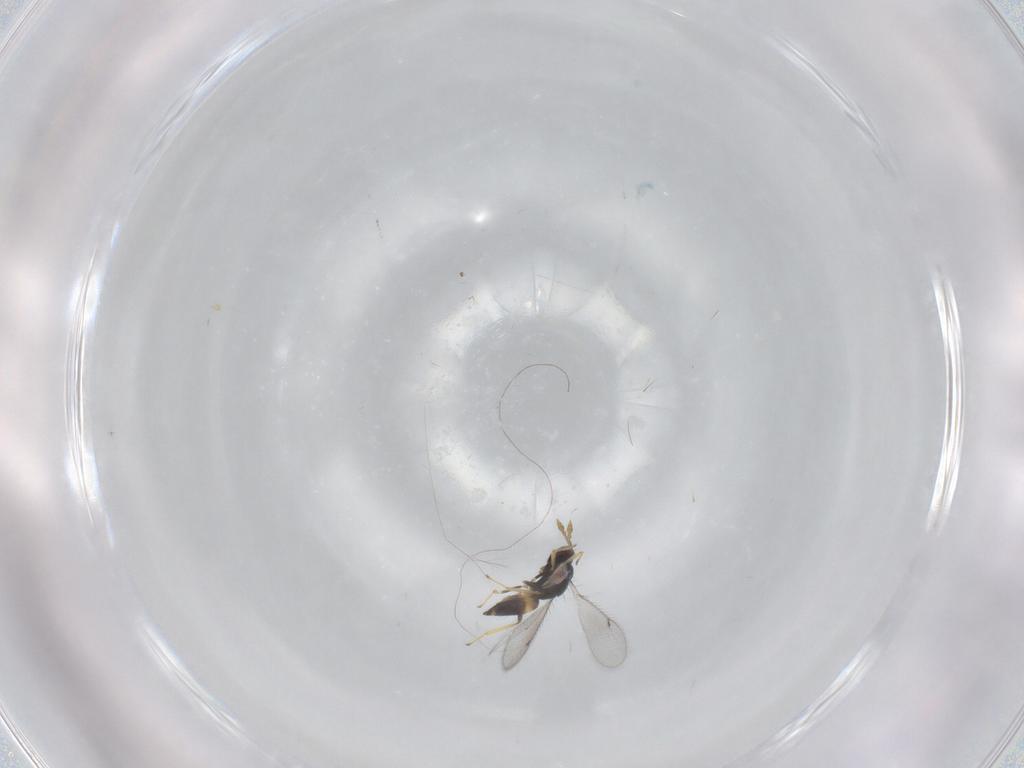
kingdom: Animalia
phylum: Arthropoda
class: Insecta
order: Hymenoptera
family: Eulophidae
